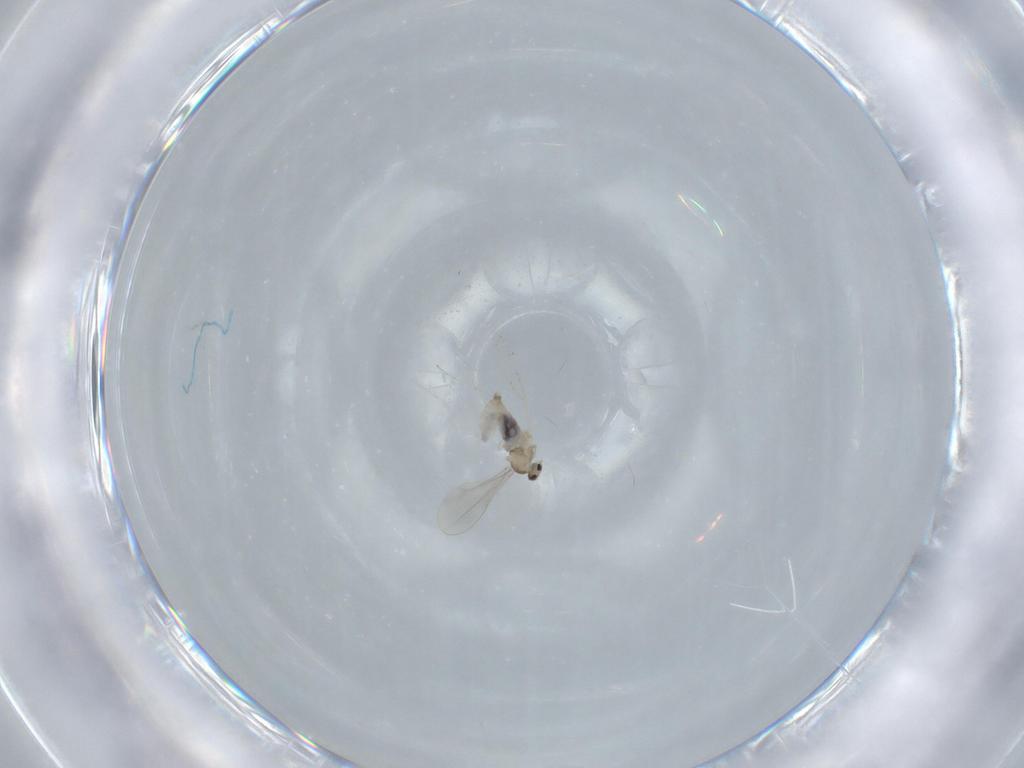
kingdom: Animalia
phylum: Arthropoda
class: Insecta
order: Diptera
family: Cecidomyiidae
